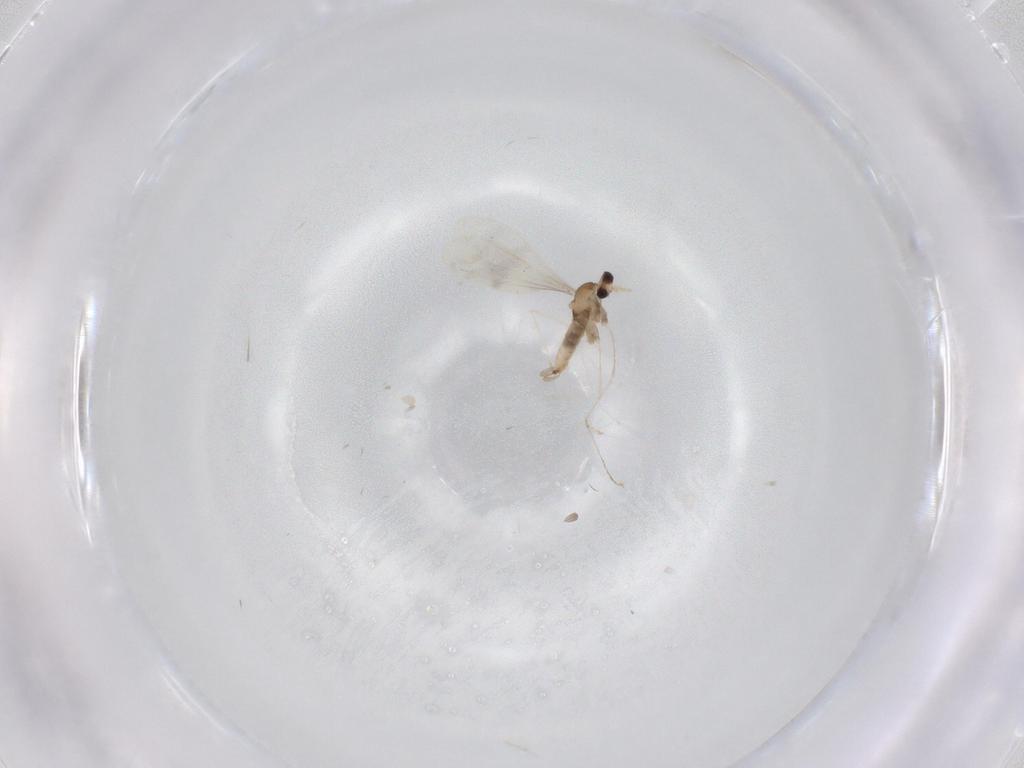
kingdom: Animalia
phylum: Arthropoda
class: Insecta
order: Diptera
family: Cecidomyiidae
